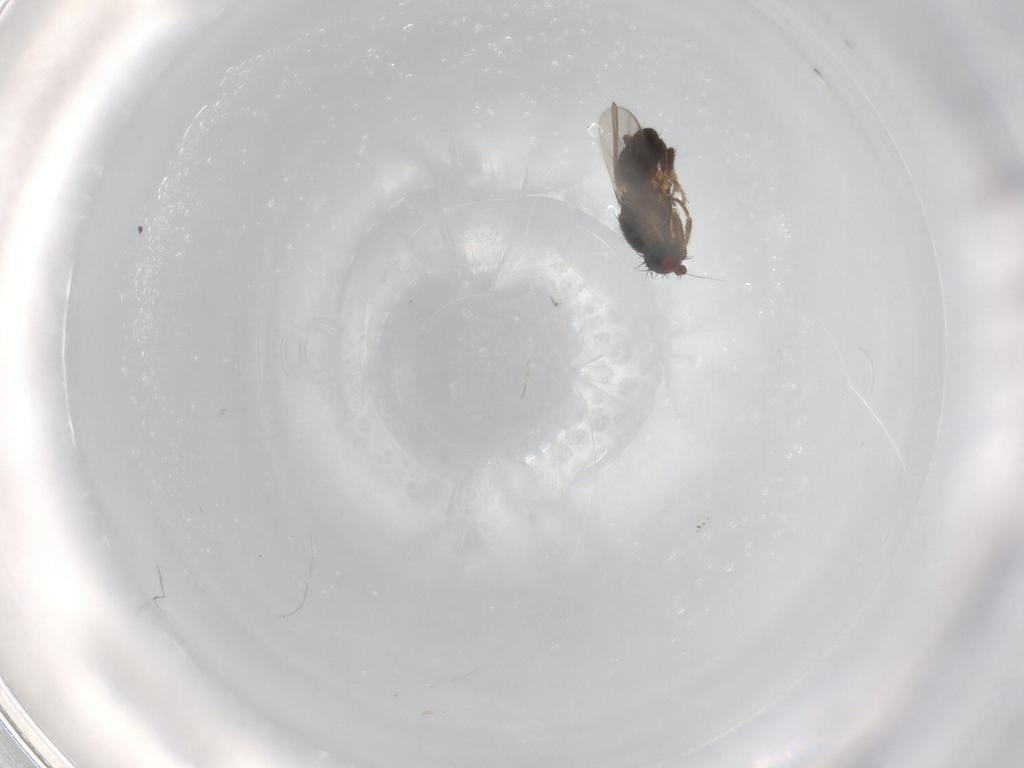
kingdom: Animalia
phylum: Arthropoda
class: Insecta
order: Diptera
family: Sphaeroceridae
